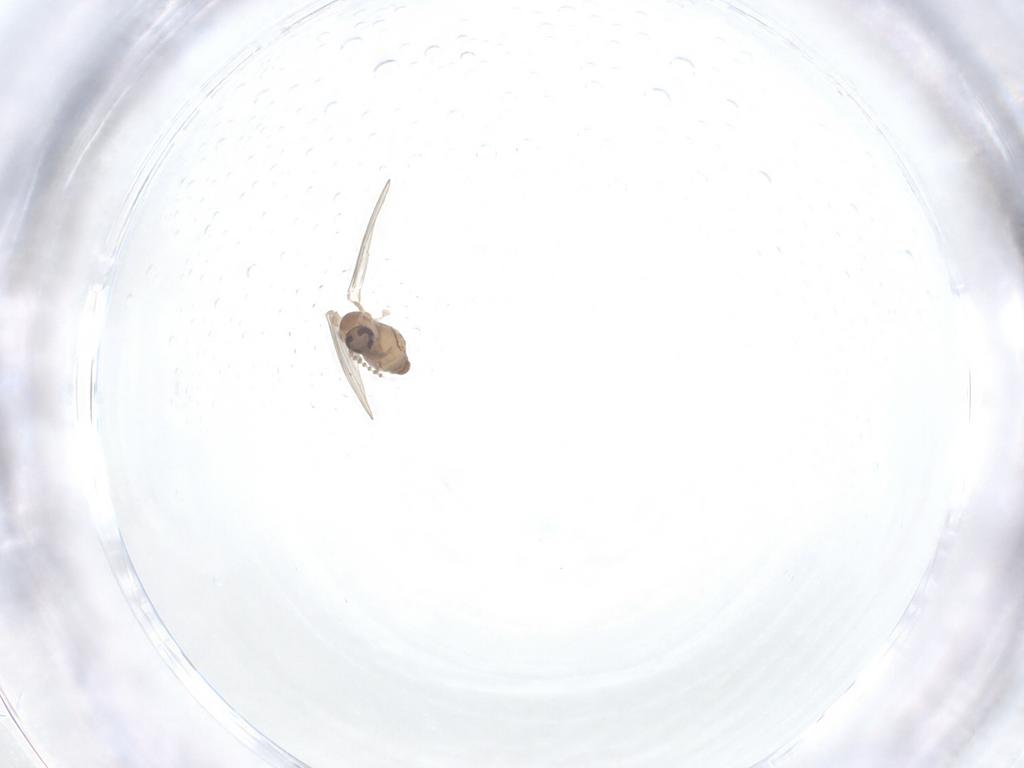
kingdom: Animalia
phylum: Arthropoda
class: Insecta
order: Diptera
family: Psychodidae
